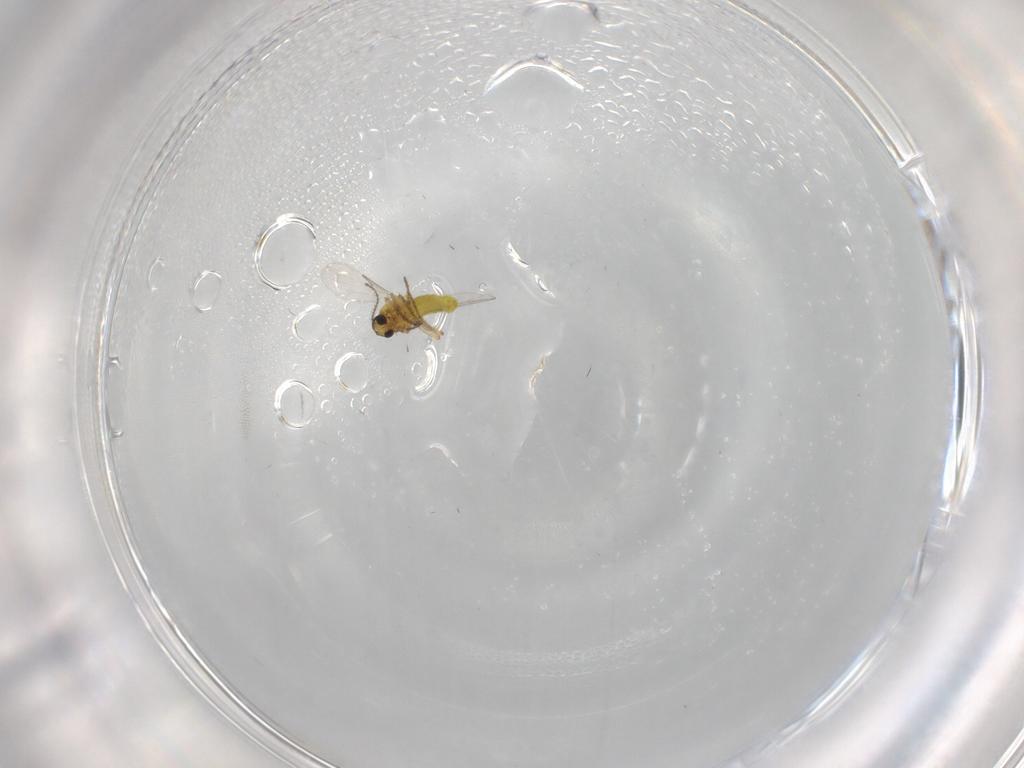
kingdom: Animalia
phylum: Arthropoda
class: Insecta
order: Diptera
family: Ceratopogonidae
